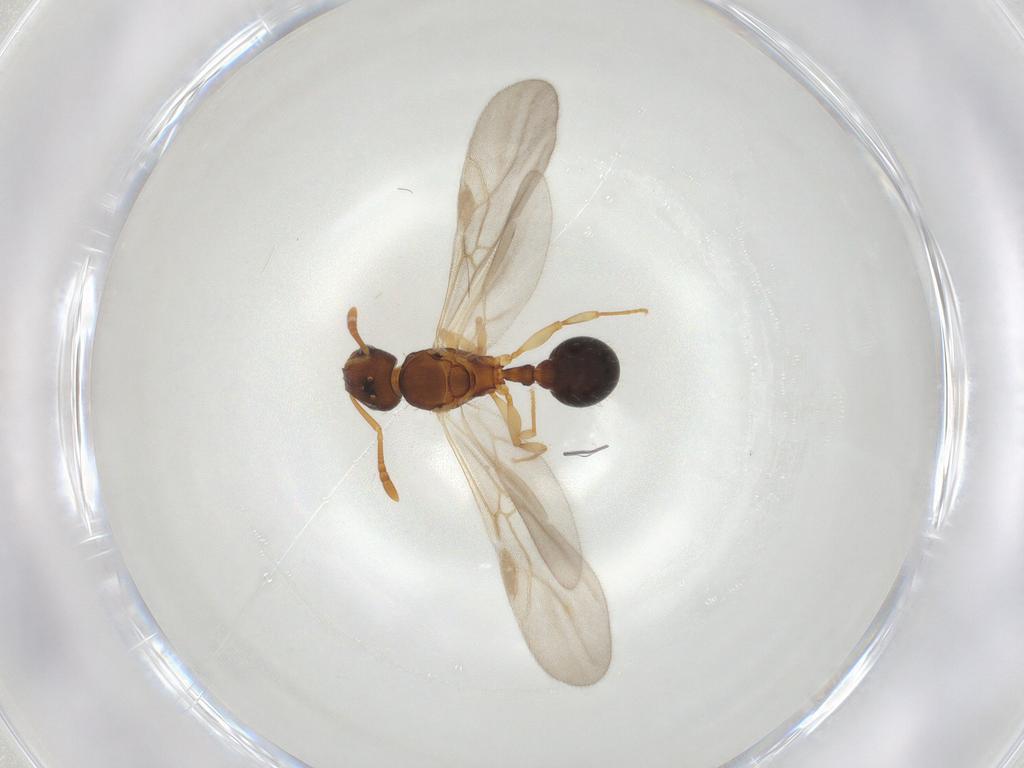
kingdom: Animalia
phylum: Arthropoda
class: Insecta
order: Hymenoptera
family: Formicidae
